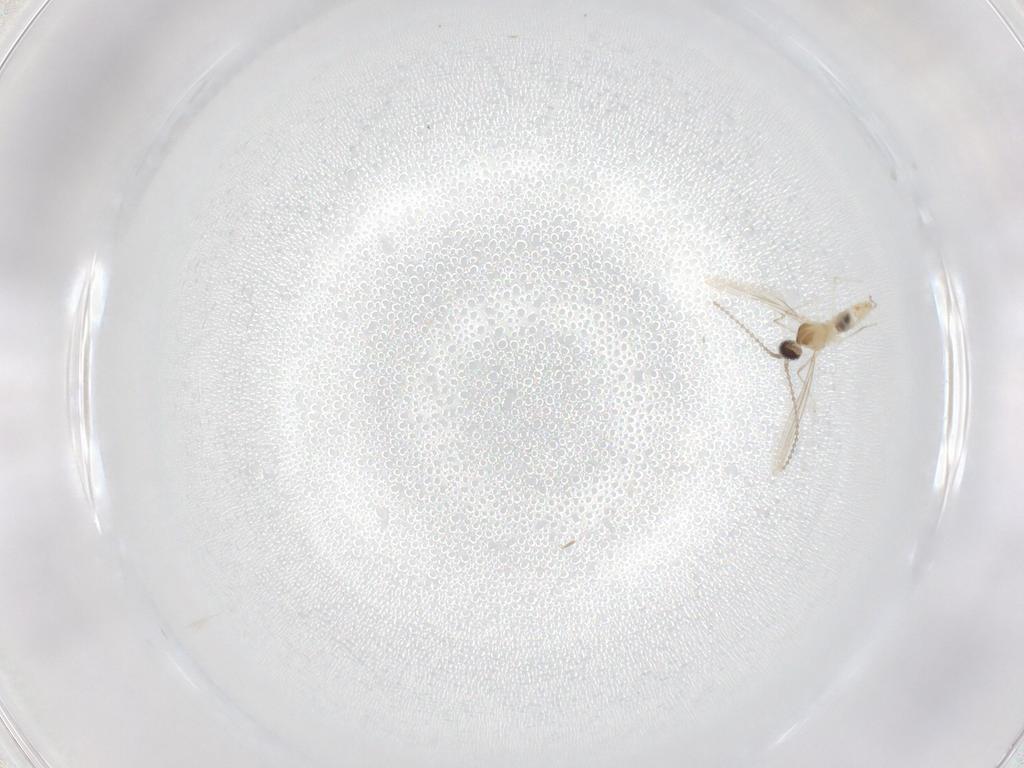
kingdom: Animalia
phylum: Arthropoda
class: Insecta
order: Diptera
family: Cecidomyiidae
